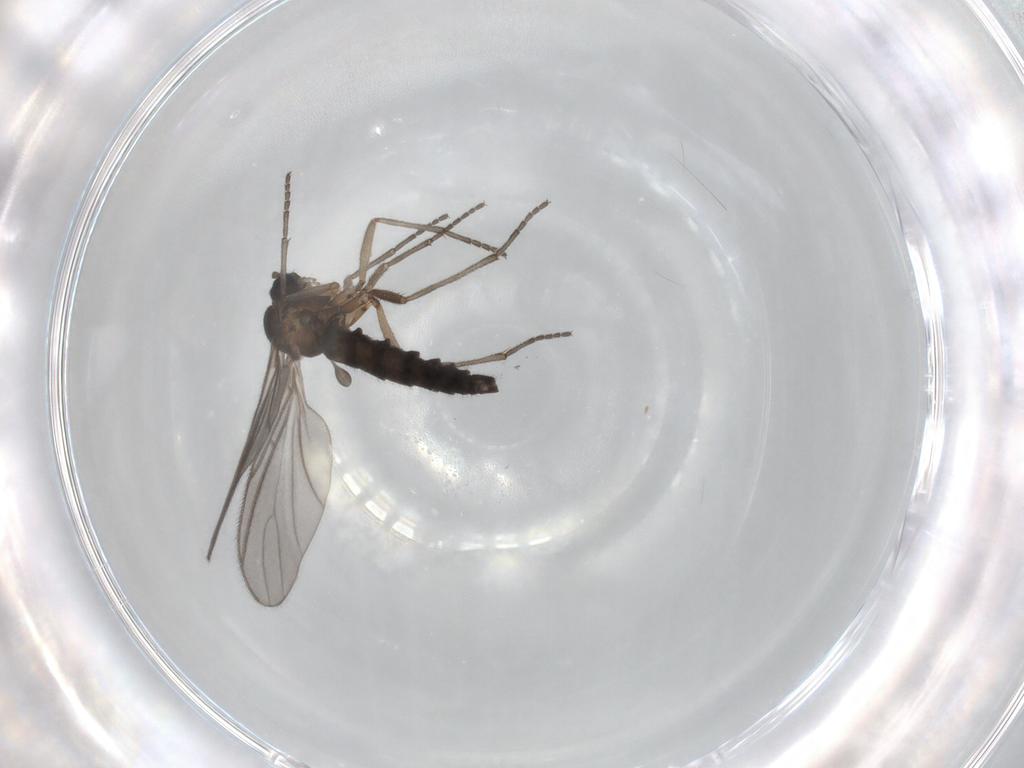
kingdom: Animalia
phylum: Arthropoda
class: Insecta
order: Diptera
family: Sciaridae
